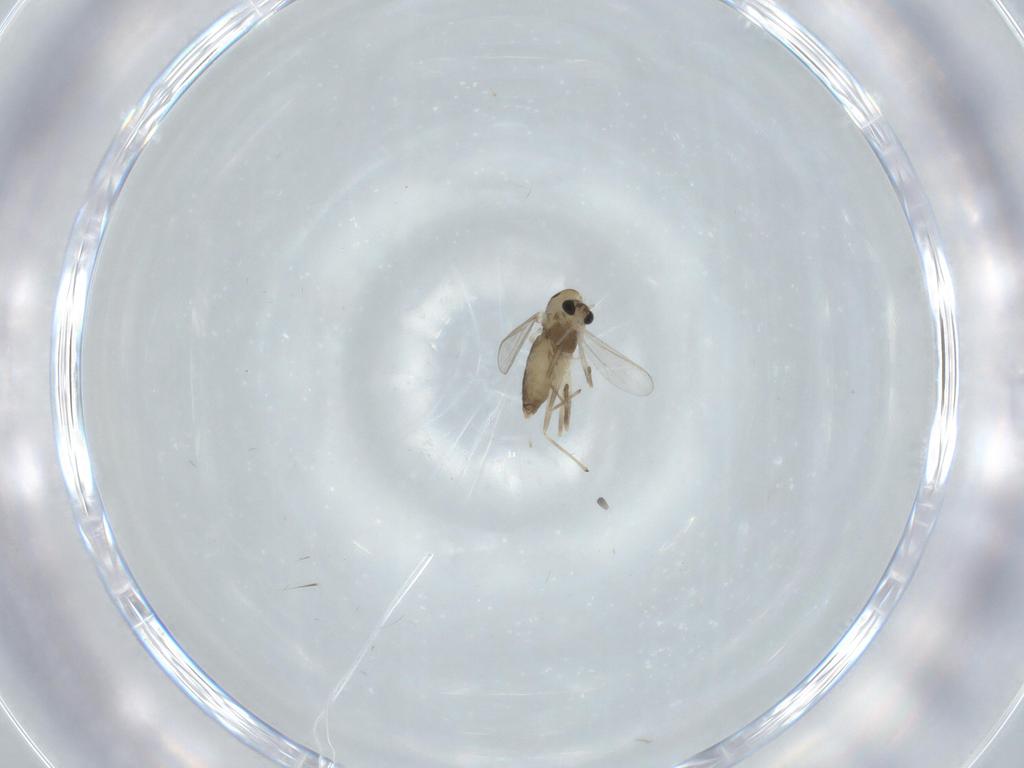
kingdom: Animalia
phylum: Arthropoda
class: Insecta
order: Diptera
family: Chironomidae
